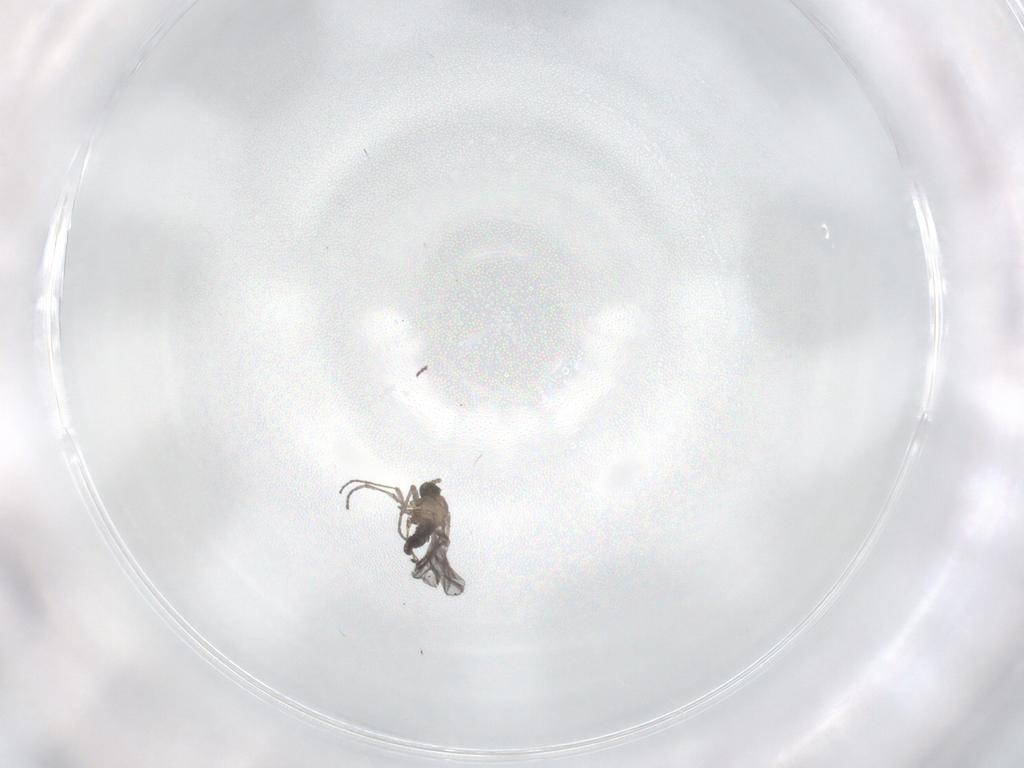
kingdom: Animalia
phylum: Arthropoda
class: Insecta
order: Diptera
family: Sciaridae
